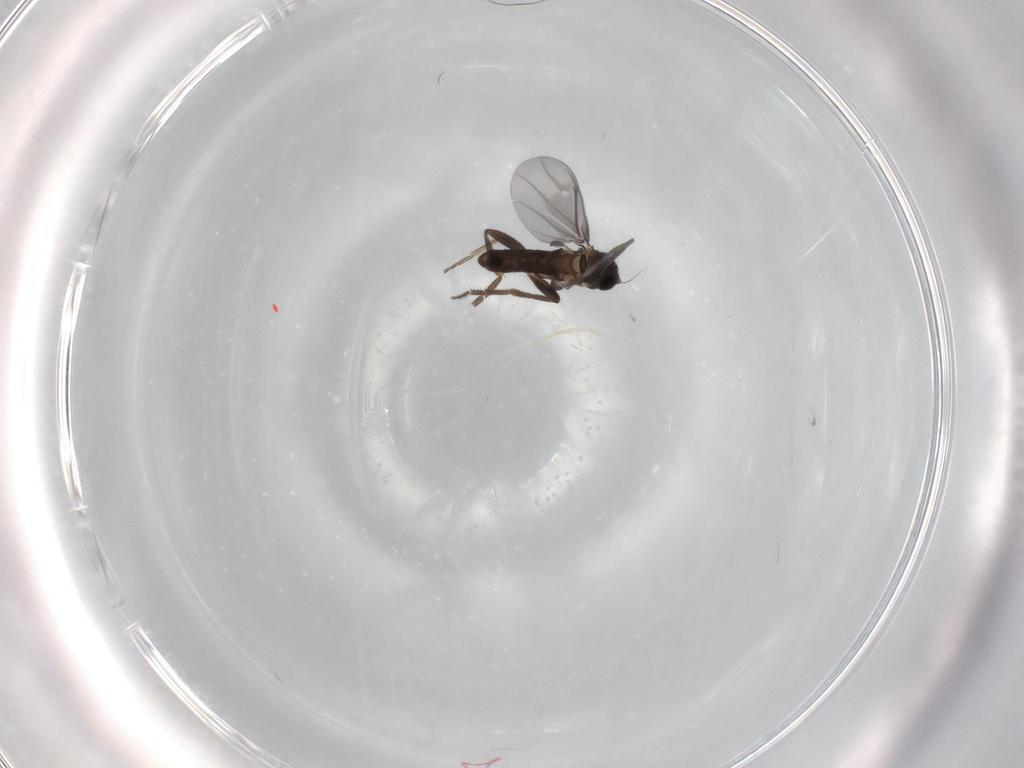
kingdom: Animalia
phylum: Arthropoda
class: Insecta
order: Diptera
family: Phoridae
